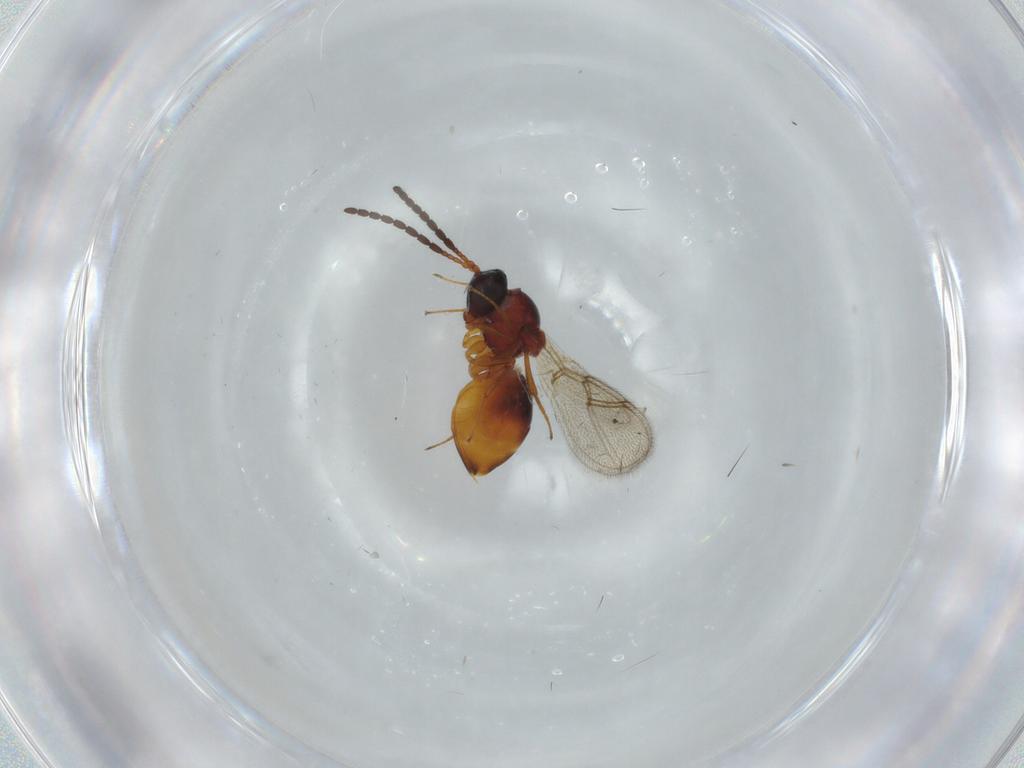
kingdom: Animalia
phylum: Arthropoda
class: Insecta
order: Hymenoptera
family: Figitidae
